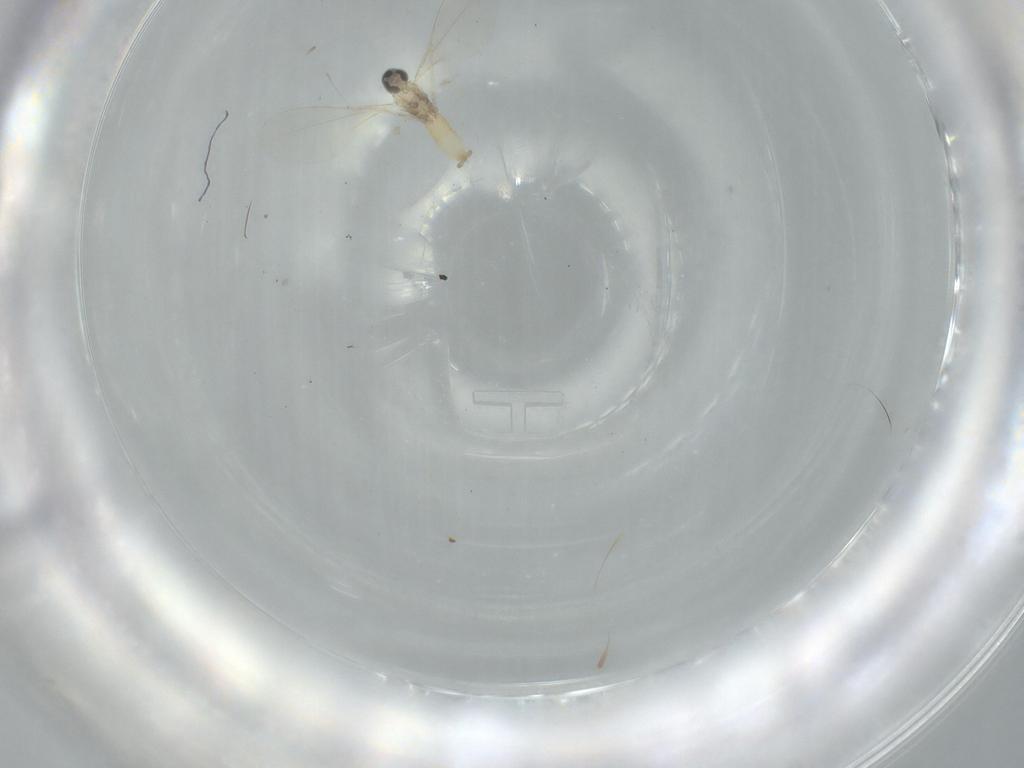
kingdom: Animalia
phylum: Arthropoda
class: Insecta
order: Diptera
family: Cecidomyiidae
